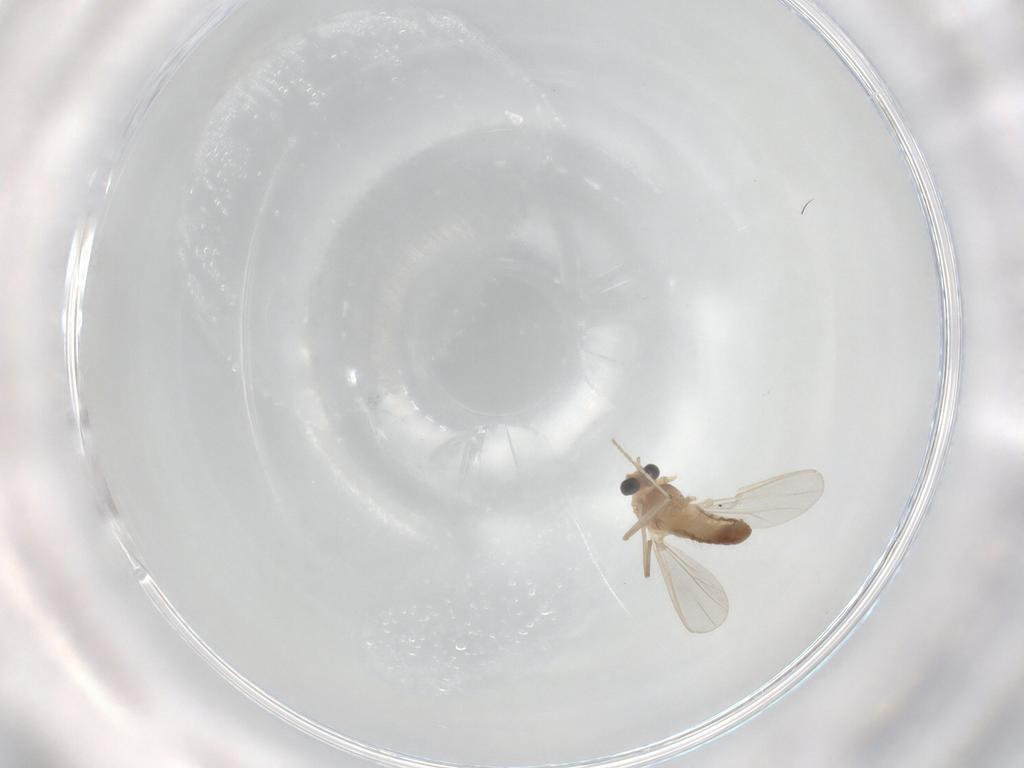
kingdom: Animalia
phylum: Arthropoda
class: Insecta
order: Diptera
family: Chironomidae
